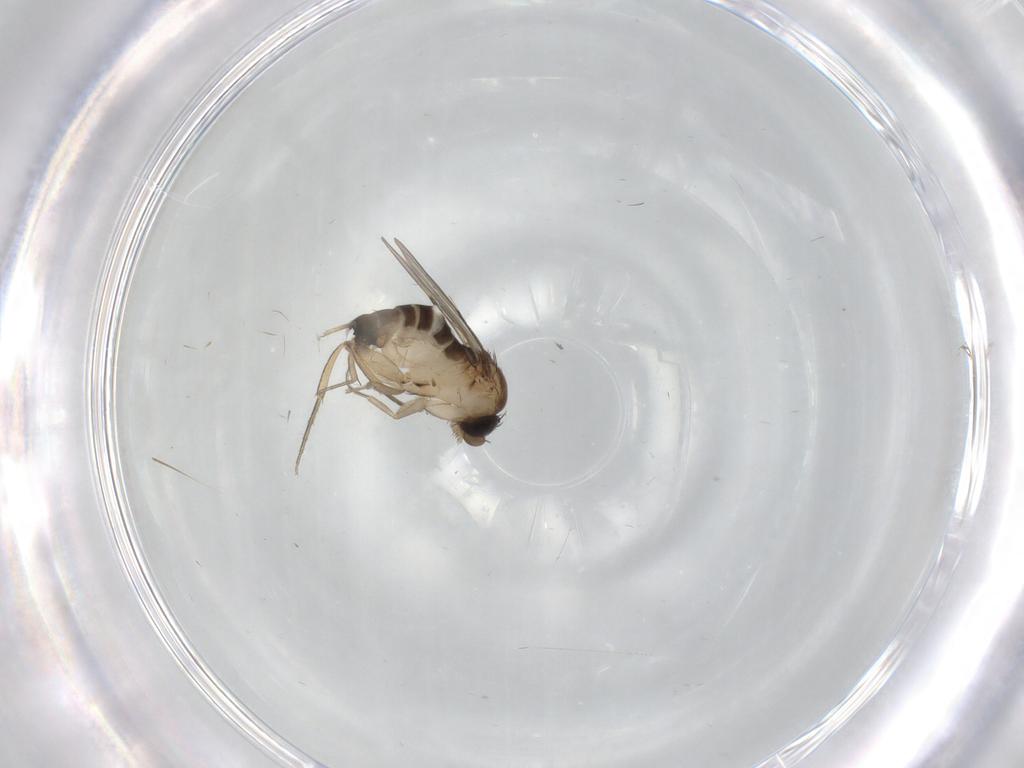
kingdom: Animalia
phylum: Arthropoda
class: Insecta
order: Diptera
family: Phoridae
